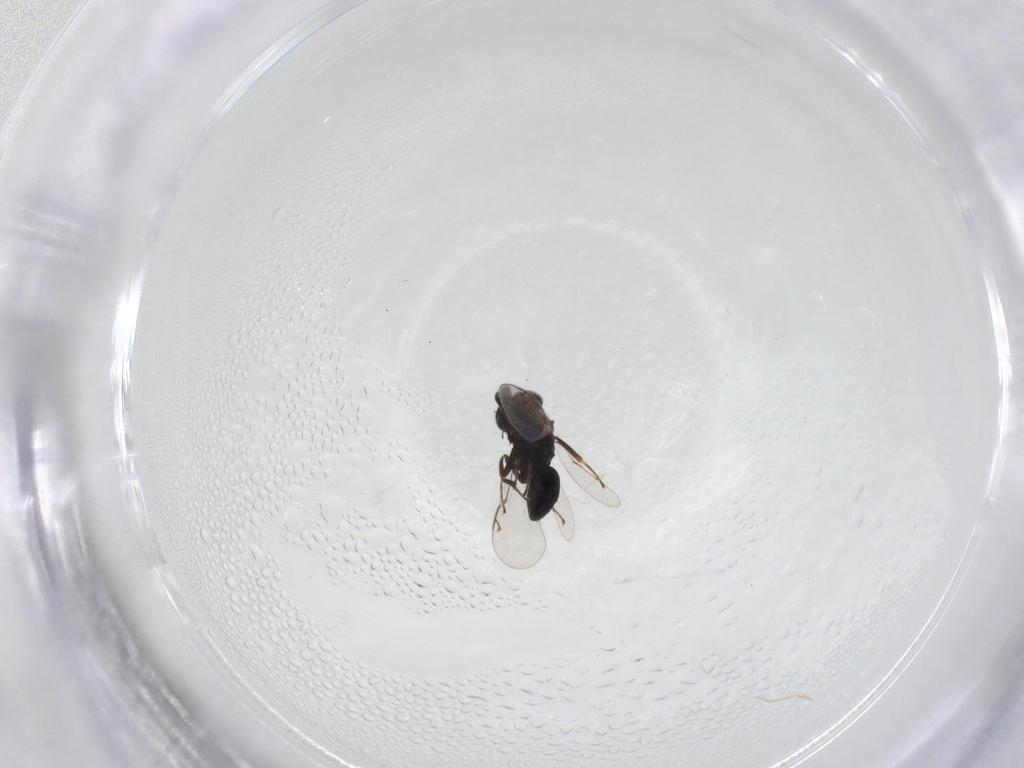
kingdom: Animalia
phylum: Arthropoda
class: Insecta
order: Hymenoptera
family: Eunotidae
